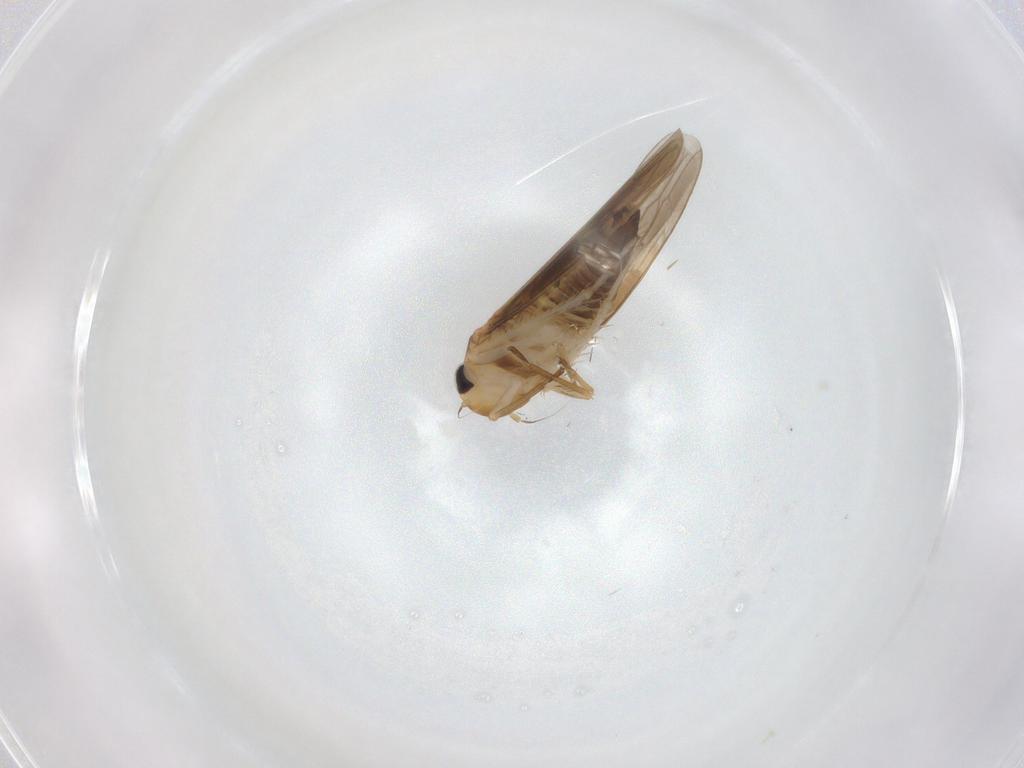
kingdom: Animalia
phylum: Arthropoda
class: Insecta
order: Hemiptera
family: Cicadellidae
